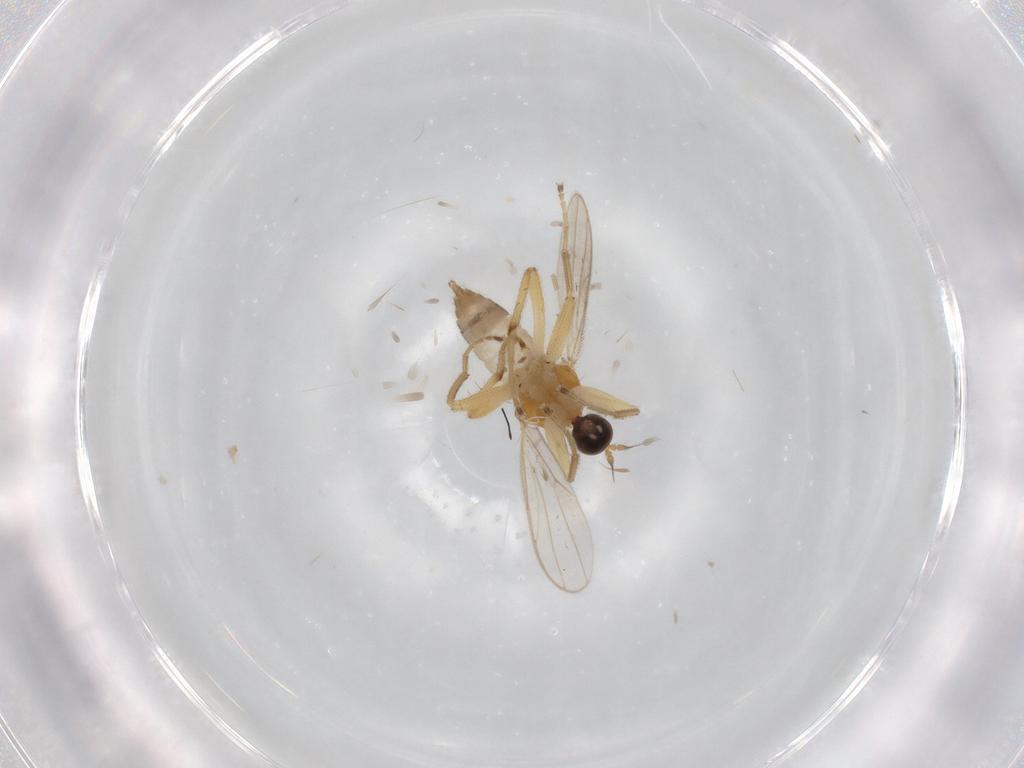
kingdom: Animalia
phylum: Arthropoda
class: Insecta
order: Diptera
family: Hybotidae
